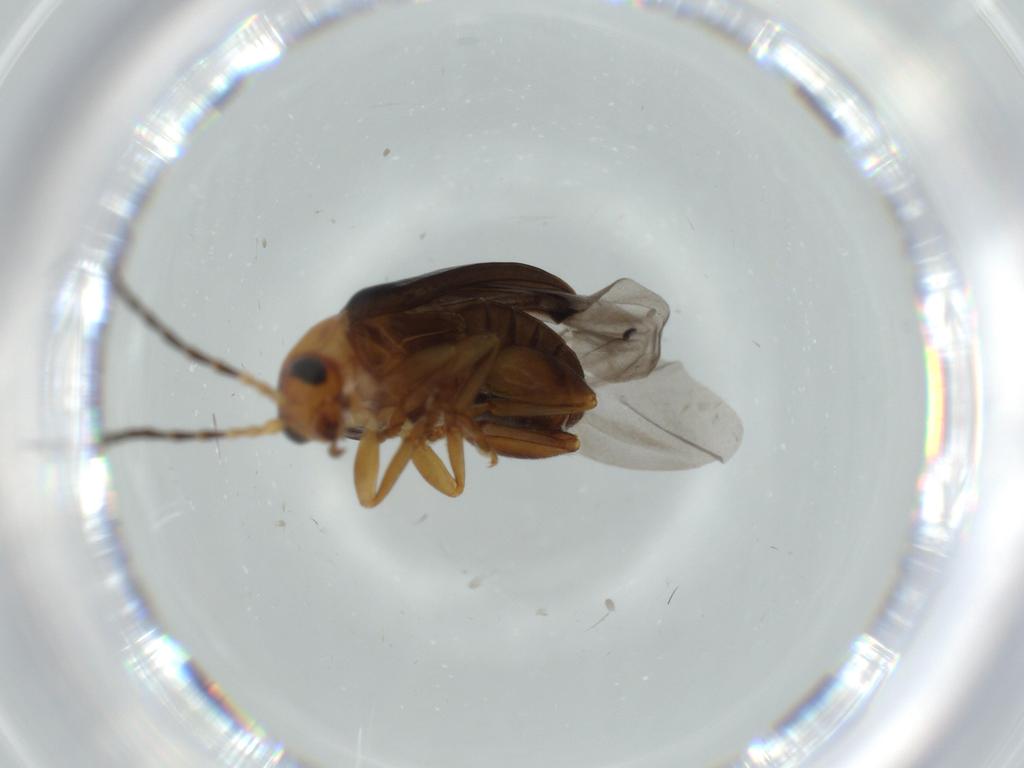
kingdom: Animalia
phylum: Arthropoda
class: Insecta
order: Coleoptera
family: Chrysomelidae
